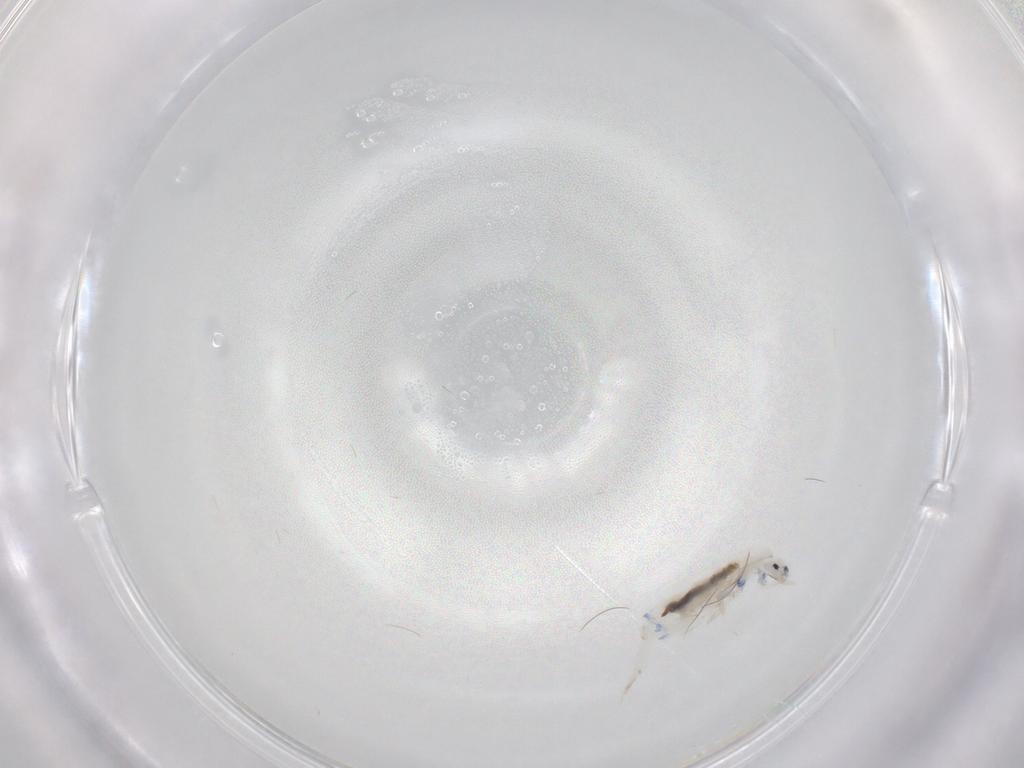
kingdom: Animalia
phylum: Arthropoda
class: Collembola
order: Entomobryomorpha
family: Entomobryidae
